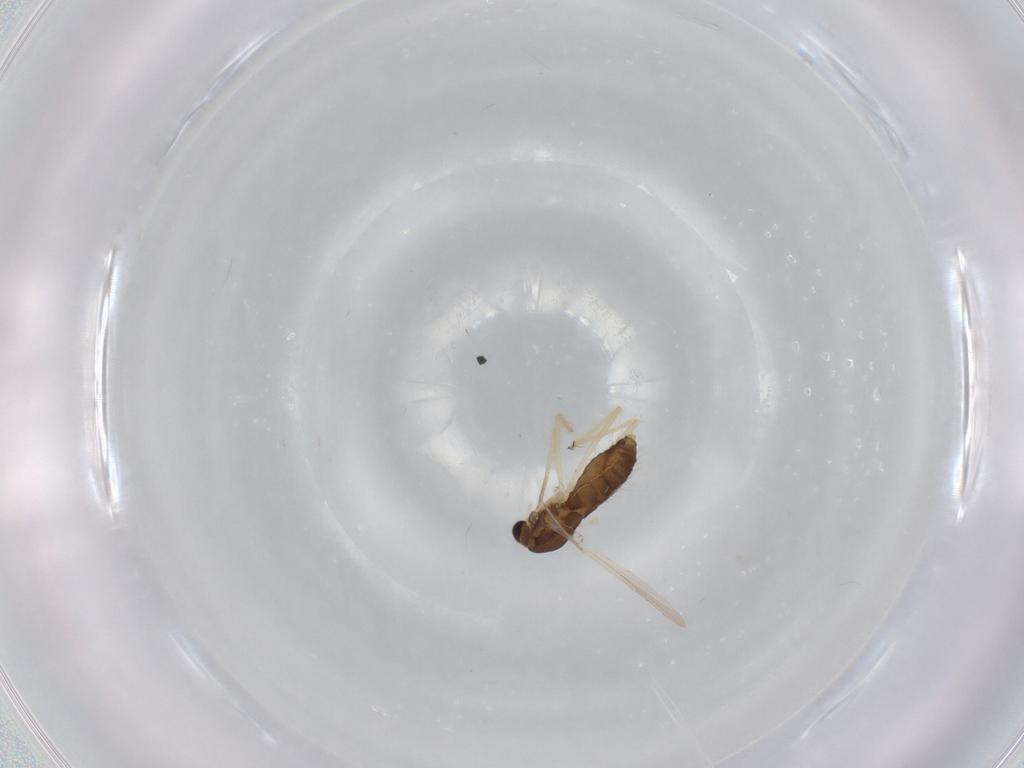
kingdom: Animalia
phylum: Arthropoda
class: Insecta
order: Diptera
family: Chironomidae
